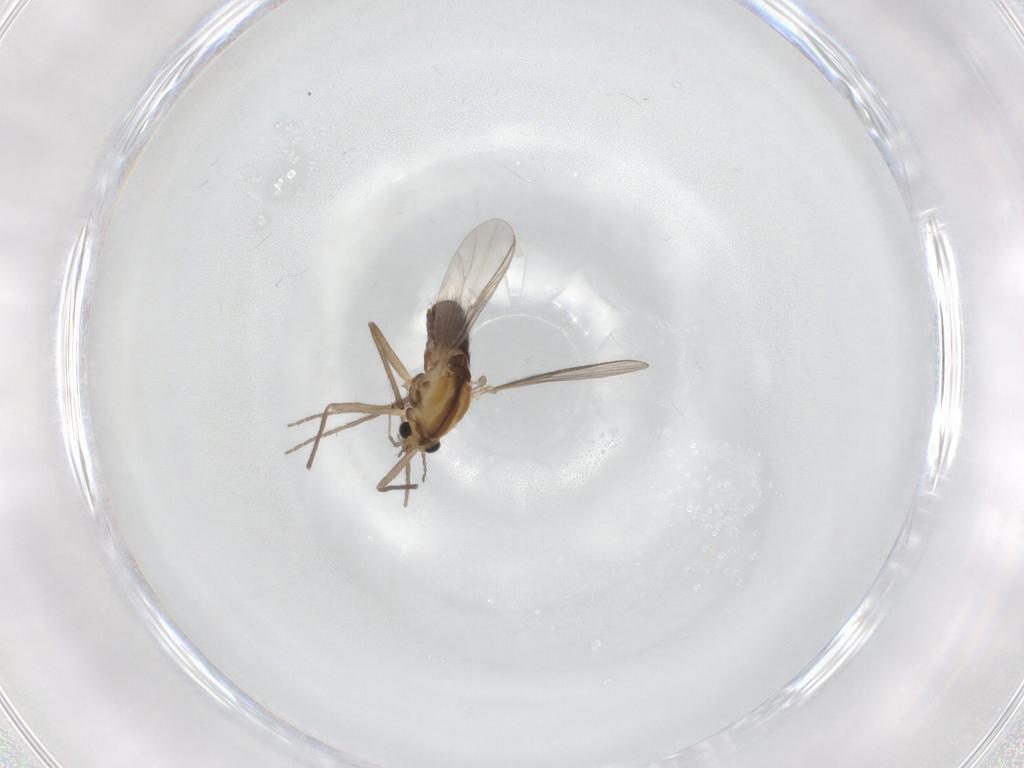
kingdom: Animalia
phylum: Arthropoda
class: Insecta
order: Diptera
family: Chironomidae
